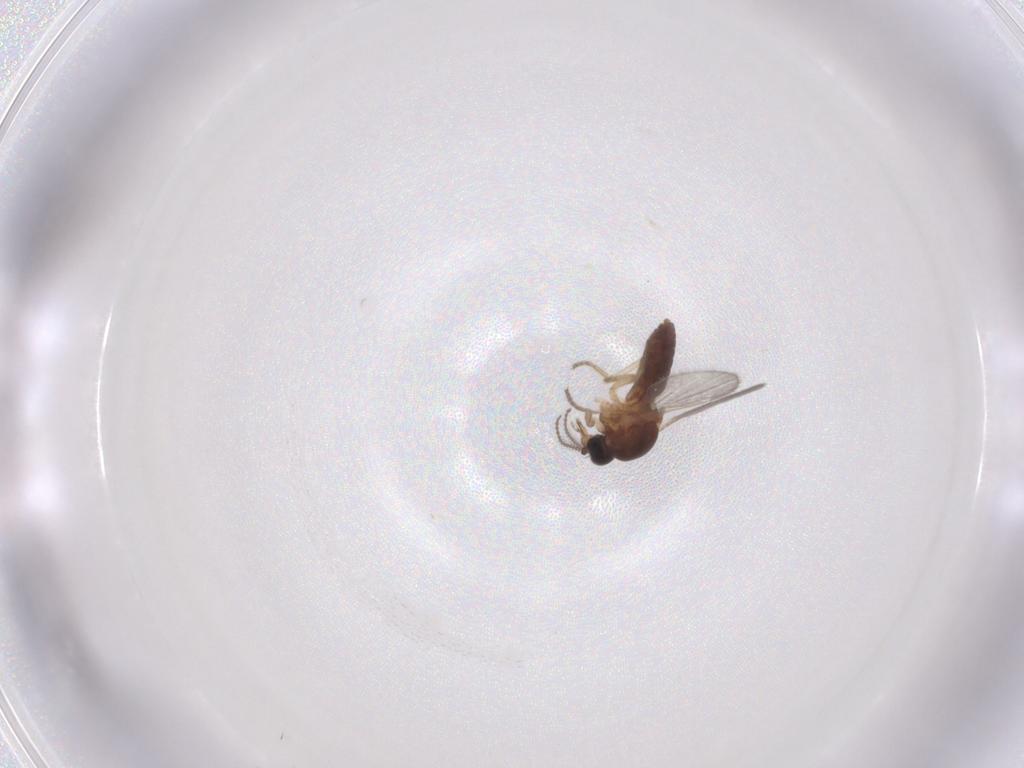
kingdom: Animalia
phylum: Arthropoda
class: Insecta
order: Diptera
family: Ceratopogonidae
